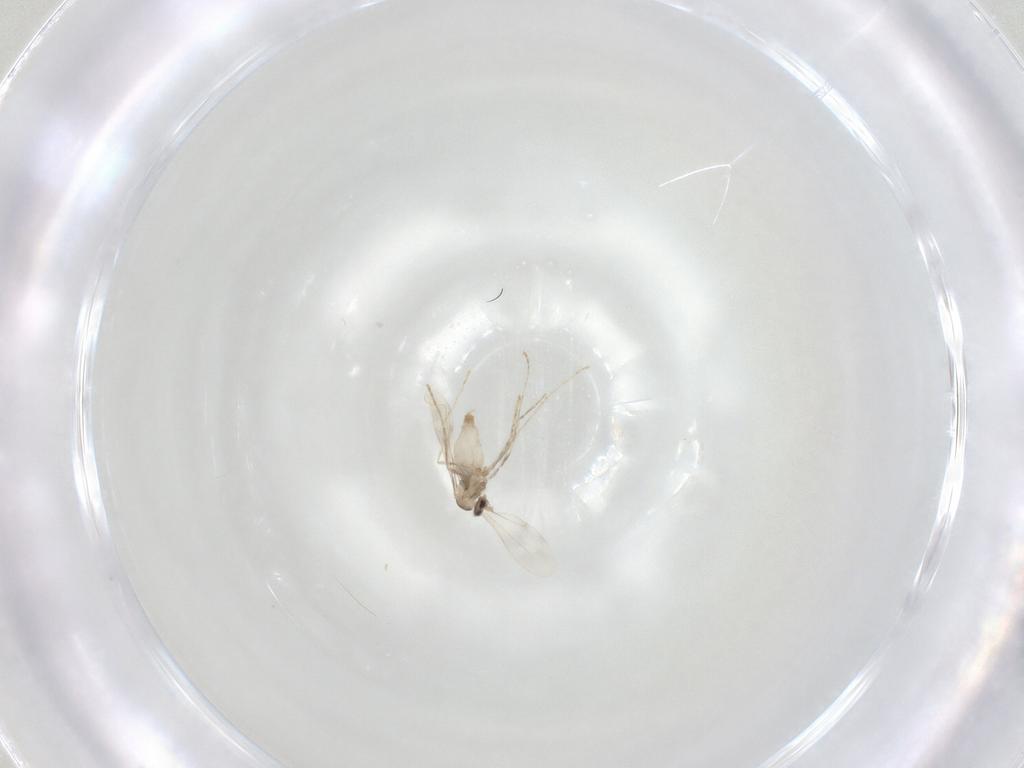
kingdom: Animalia
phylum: Arthropoda
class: Insecta
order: Diptera
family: Cecidomyiidae
